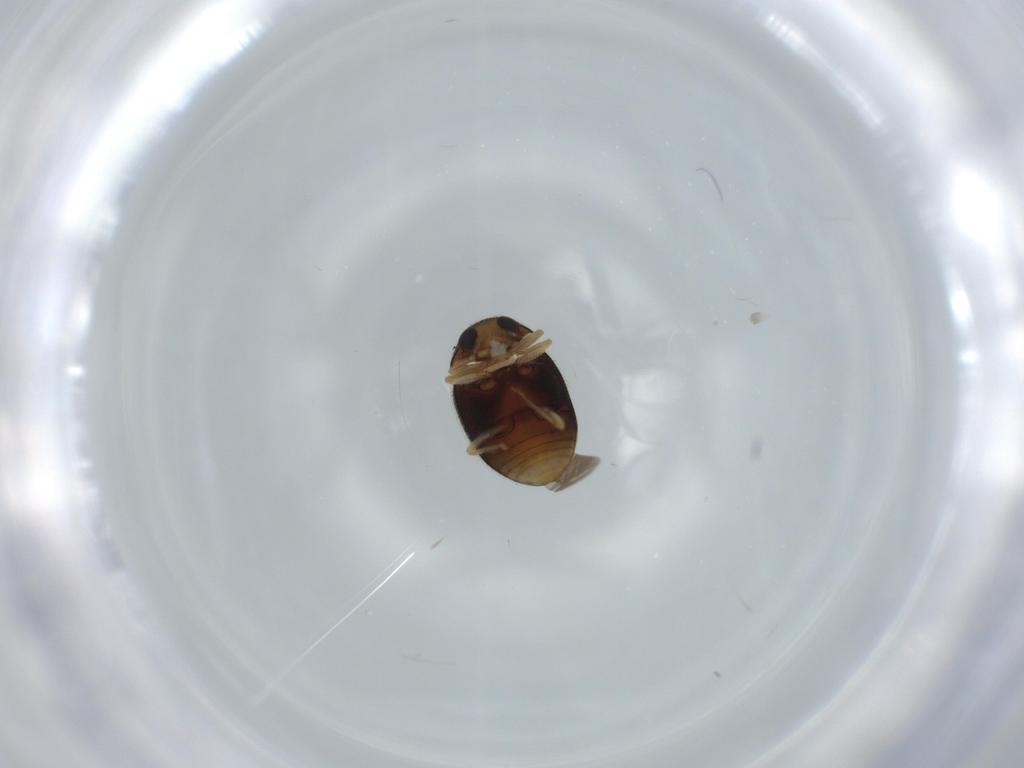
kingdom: Animalia
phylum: Arthropoda
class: Insecta
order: Coleoptera
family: Coccinellidae
